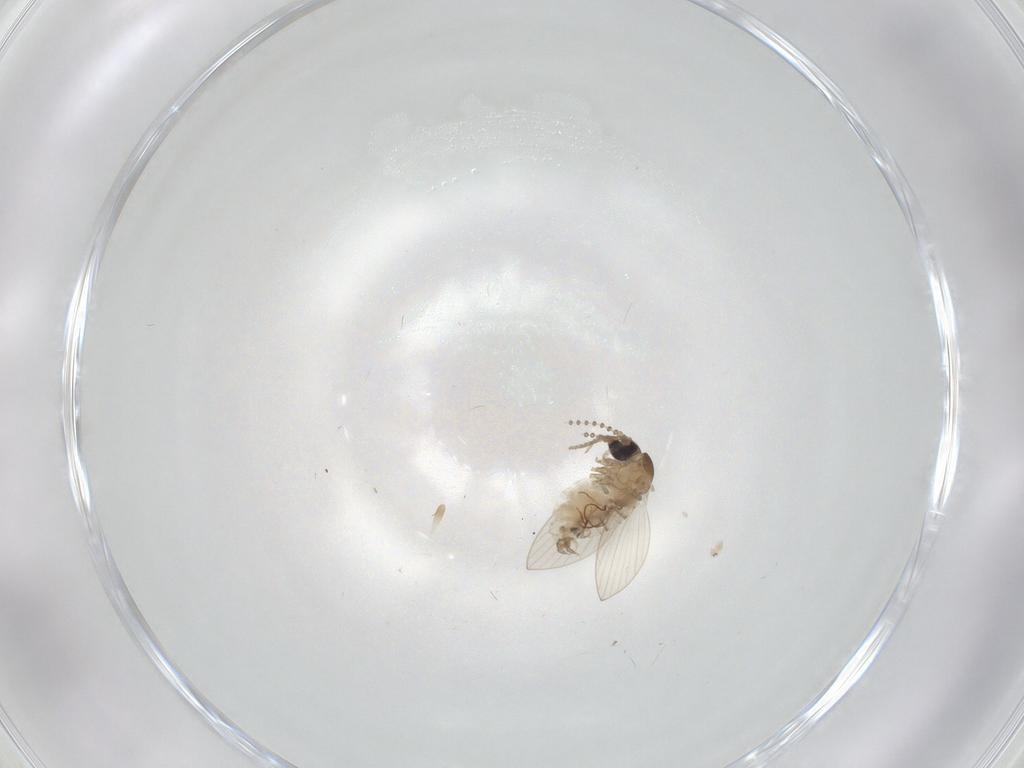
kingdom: Animalia
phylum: Arthropoda
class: Insecta
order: Diptera
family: Psychodidae
